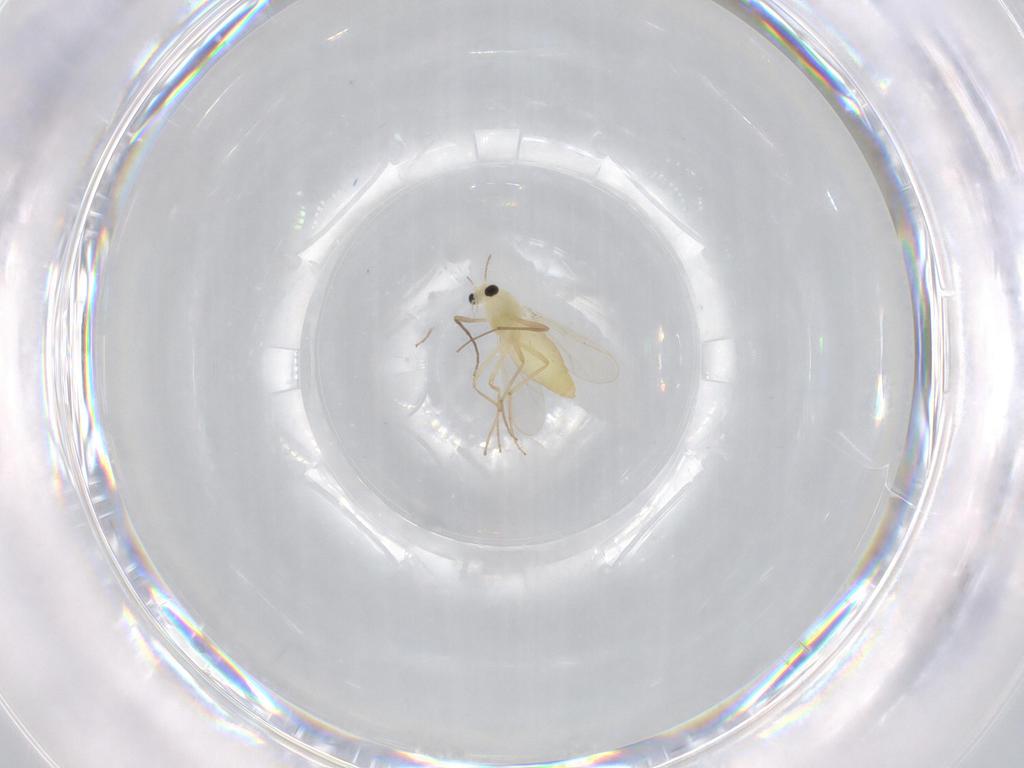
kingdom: Animalia
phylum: Arthropoda
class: Insecta
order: Diptera
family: Chironomidae
